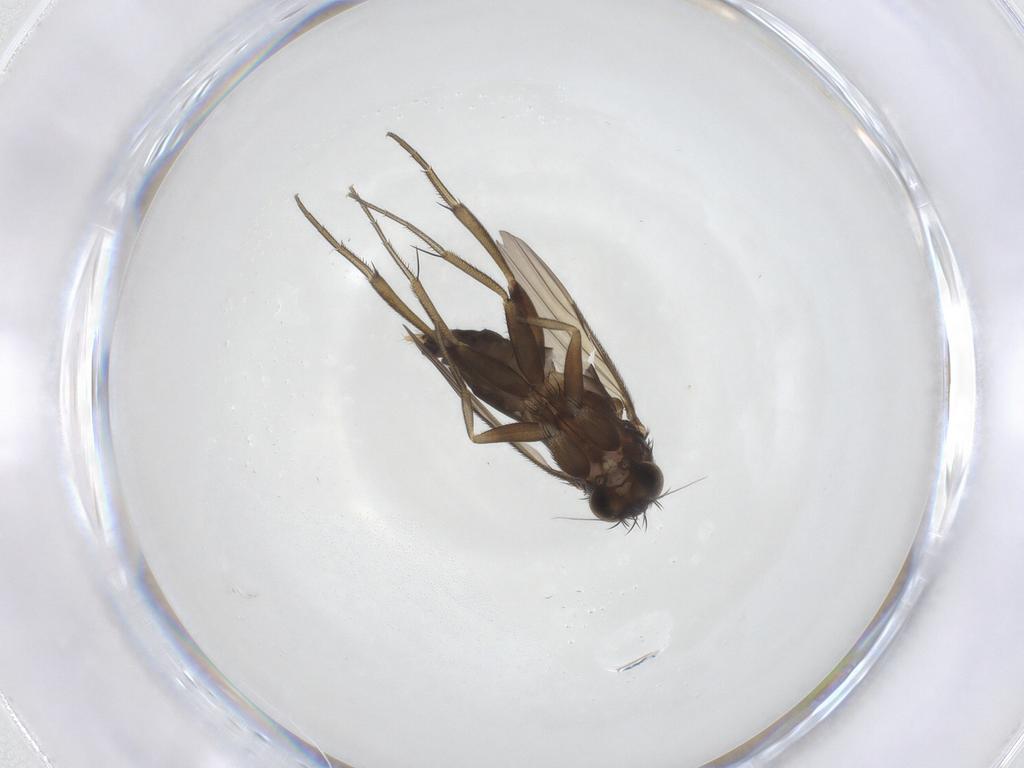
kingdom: Animalia
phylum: Arthropoda
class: Insecta
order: Diptera
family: Phoridae
